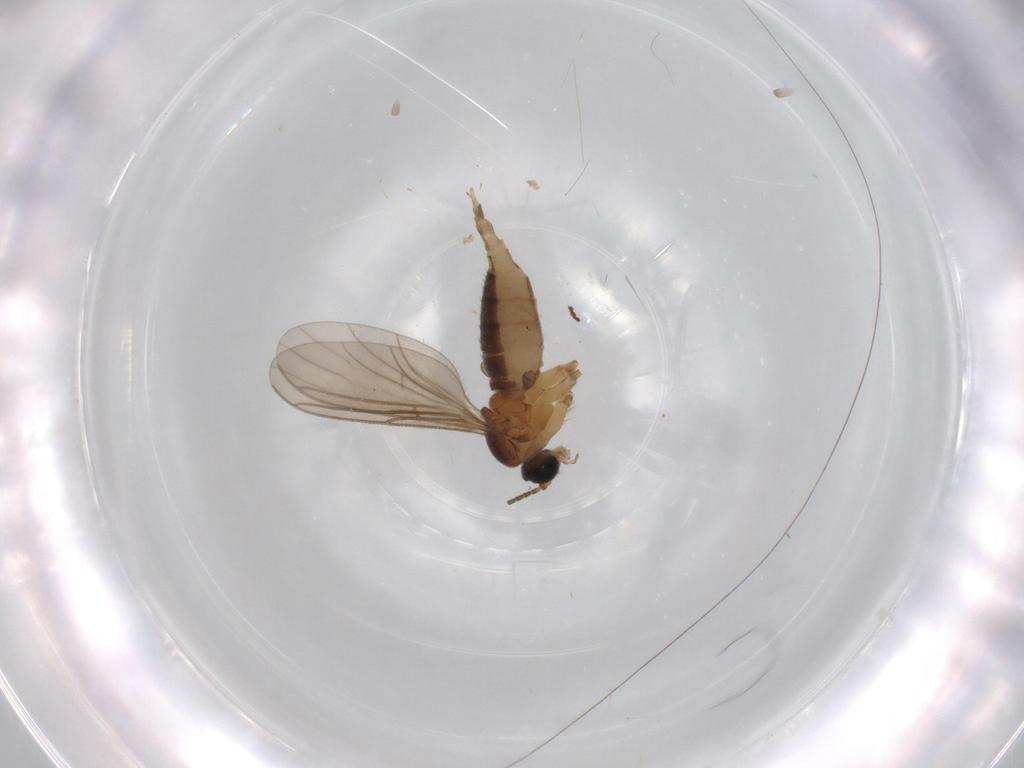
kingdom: Animalia
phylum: Arthropoda
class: Insecta
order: Diptera
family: Sciaridae
